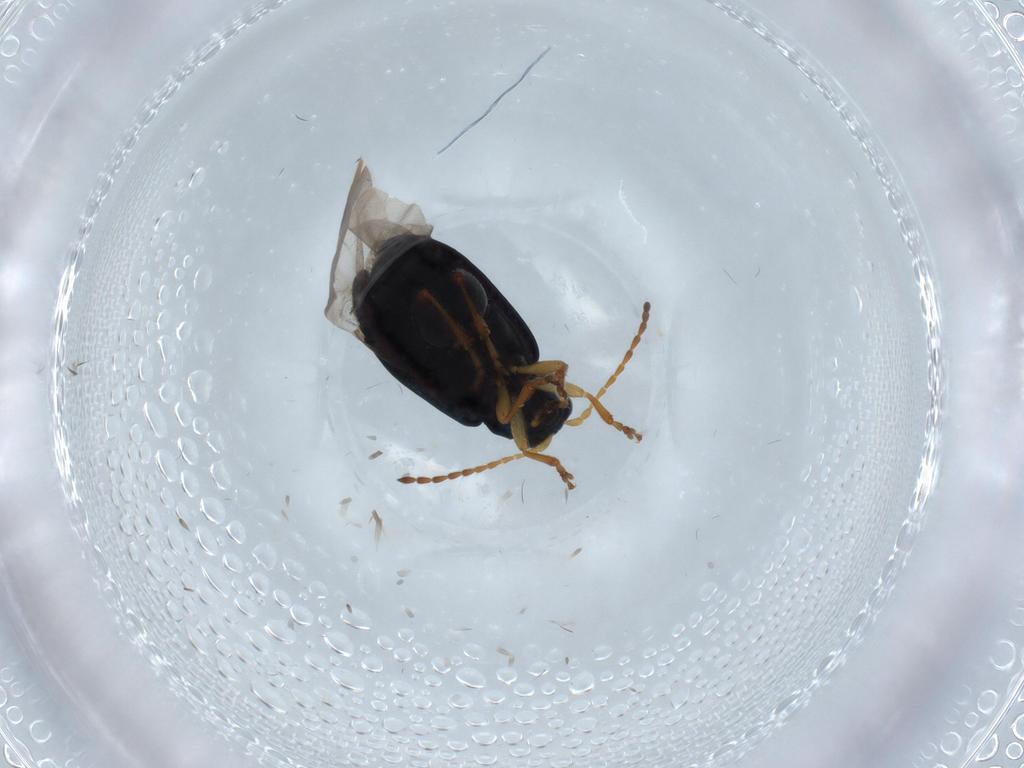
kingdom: Animalia
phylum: Arthropoda
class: Insecta
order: Coleoptera
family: Chrysomelidae
